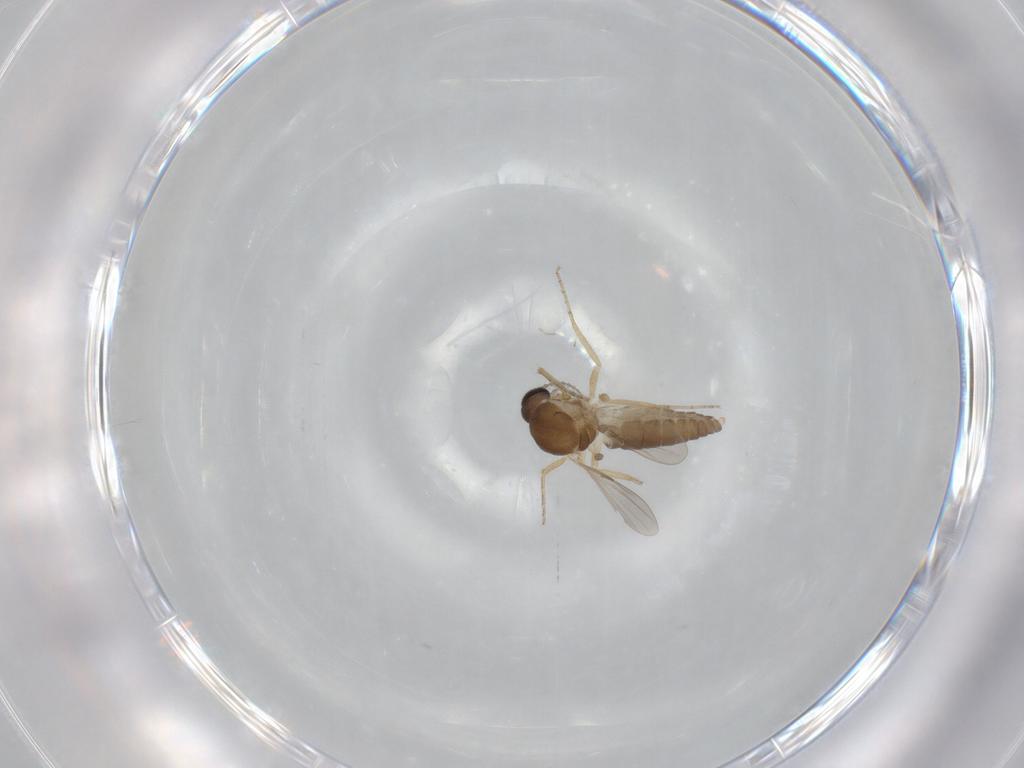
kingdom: Animalia
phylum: Arthropoda
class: Insecta
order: Diptera
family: Ceratopogonidae
